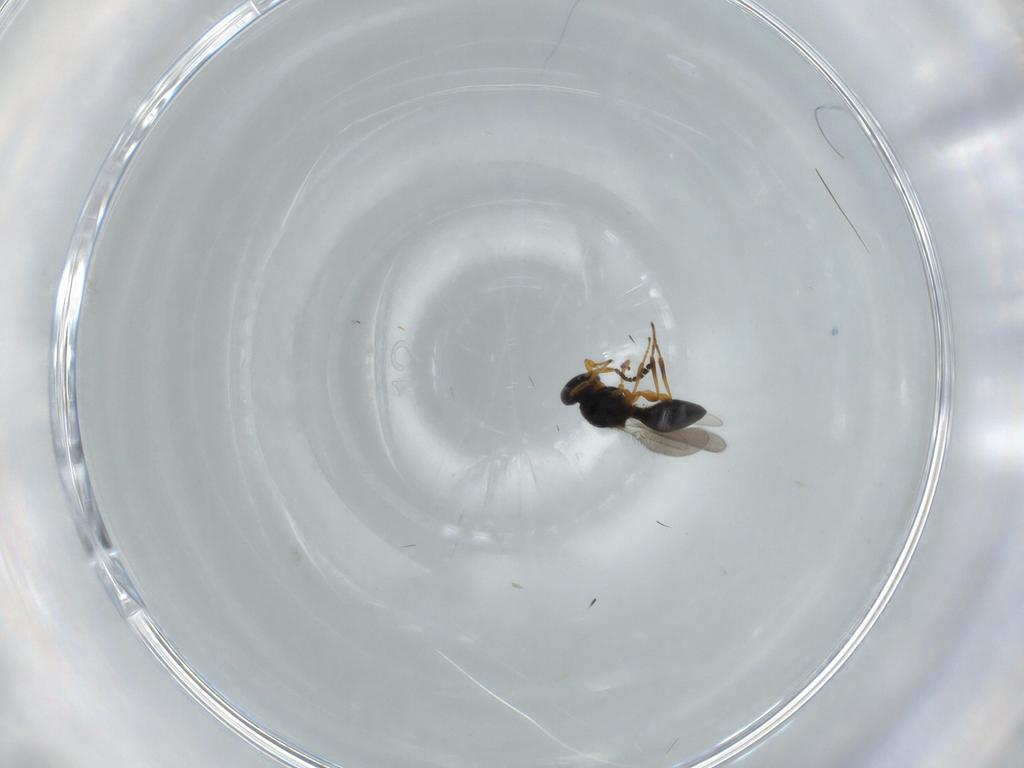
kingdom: Animalia
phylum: Arthropoda
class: Insecta
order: Hymenoptera
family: Platygastridae
